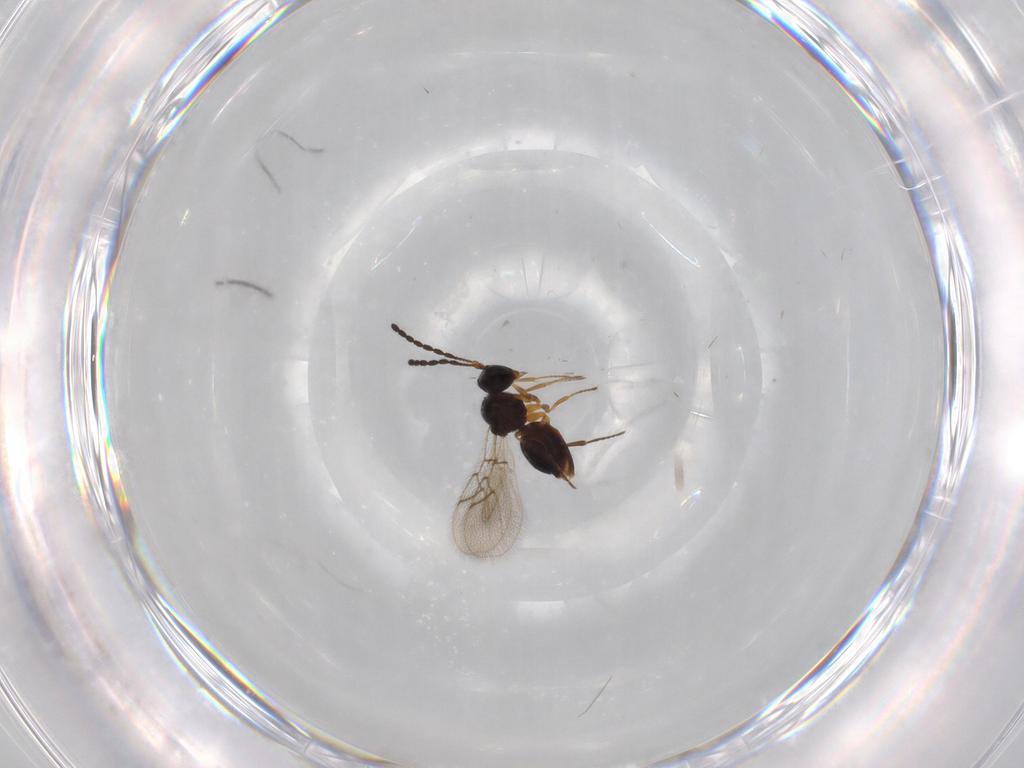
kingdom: Animalia
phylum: Arthropoda
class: Insecta
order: Hymenoptera
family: Figitidae
